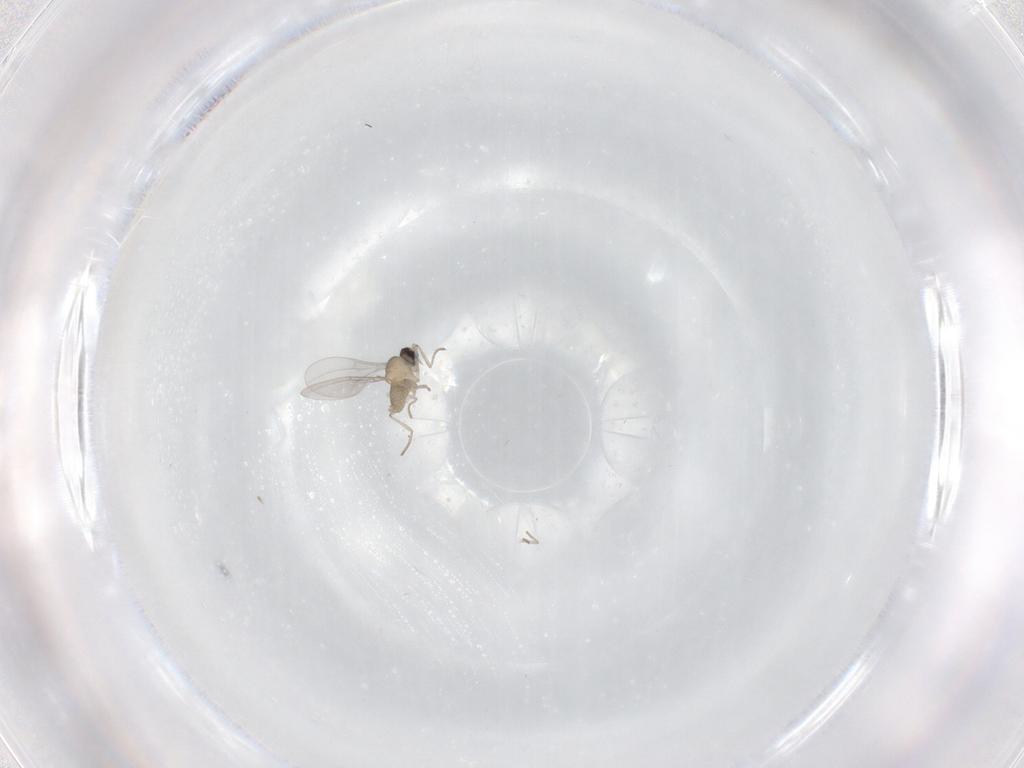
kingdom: Animalia
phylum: Arthropoda
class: Insecta
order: Diptera
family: Cecidomyiidae
